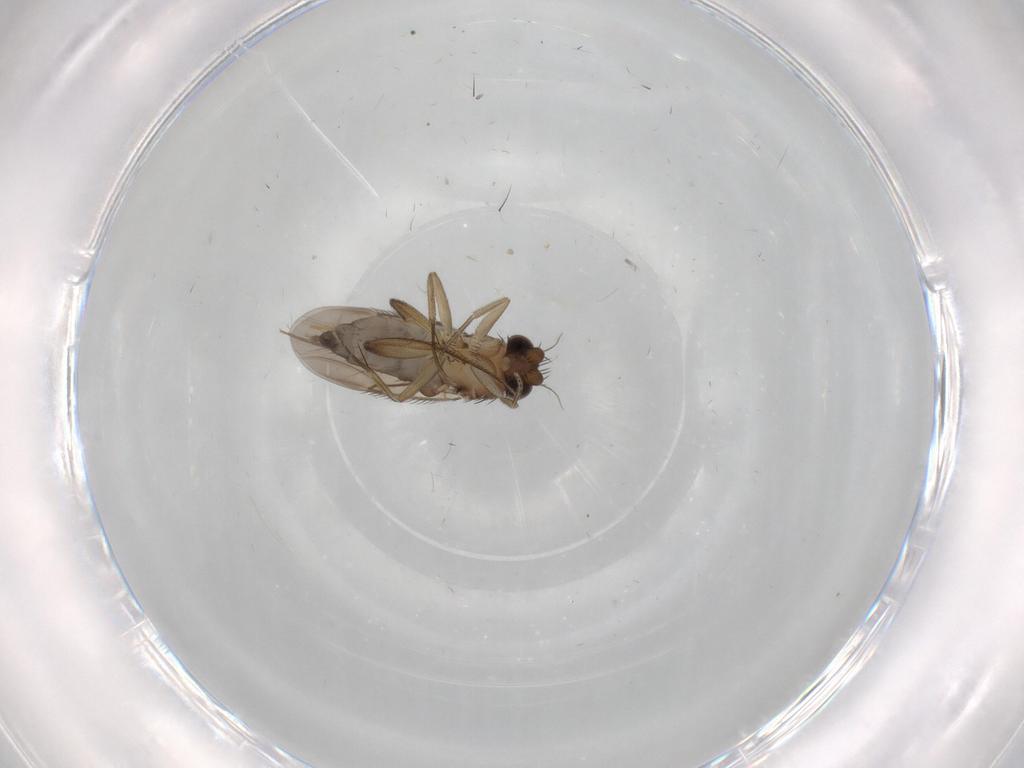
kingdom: Animalia
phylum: Arthropoda
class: Insecta
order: Diptera
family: Phoridae
